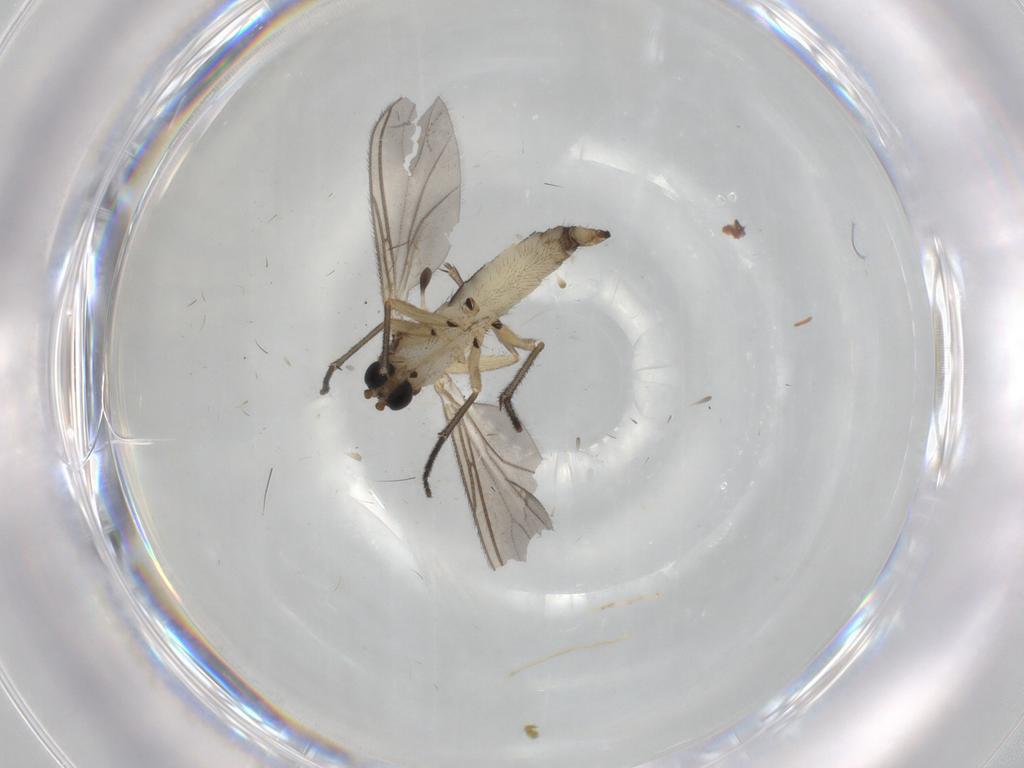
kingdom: Animalia
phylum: Arthropoda
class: Insecta
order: Diptera
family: Sciaridae
